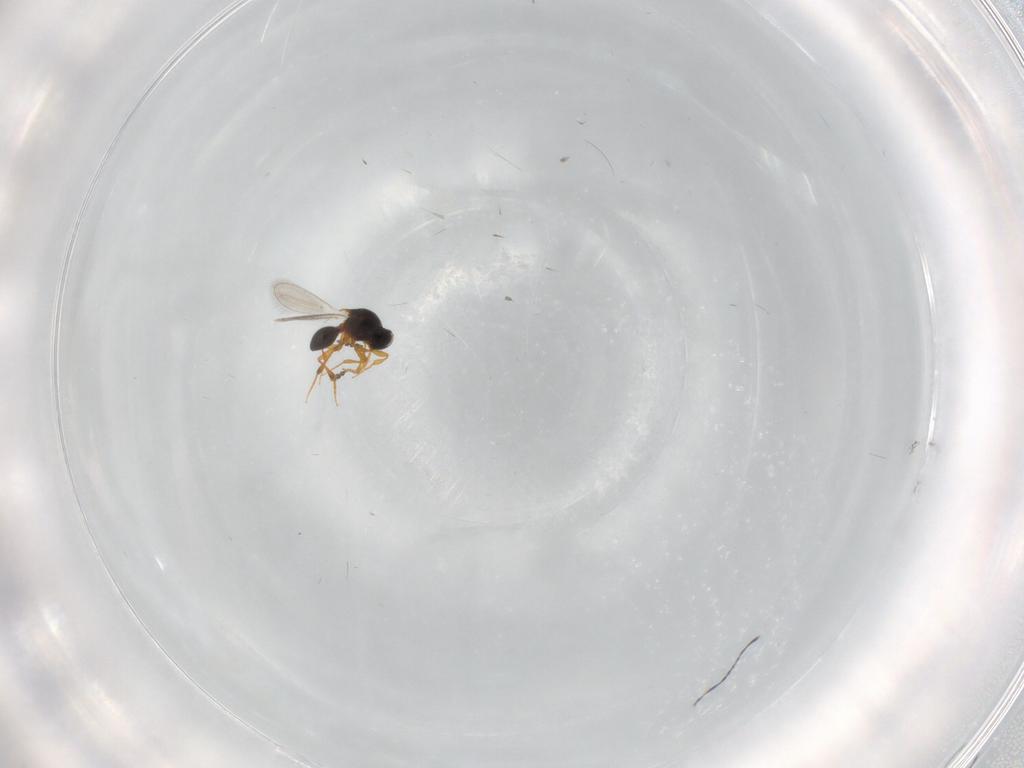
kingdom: Animalia
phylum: Arthropoda
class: Insecta
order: Hymenoptera
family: Platygastridae
